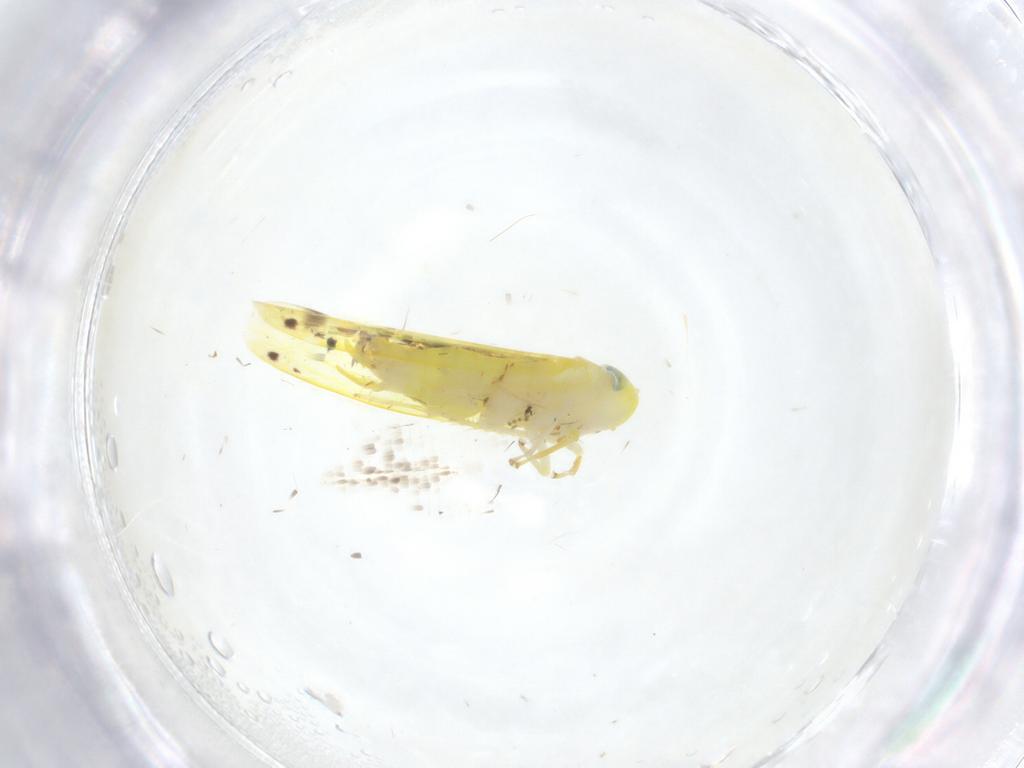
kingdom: Animalia
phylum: Arthropoda
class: Insecta
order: Hemiptera
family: Cicadellidae
